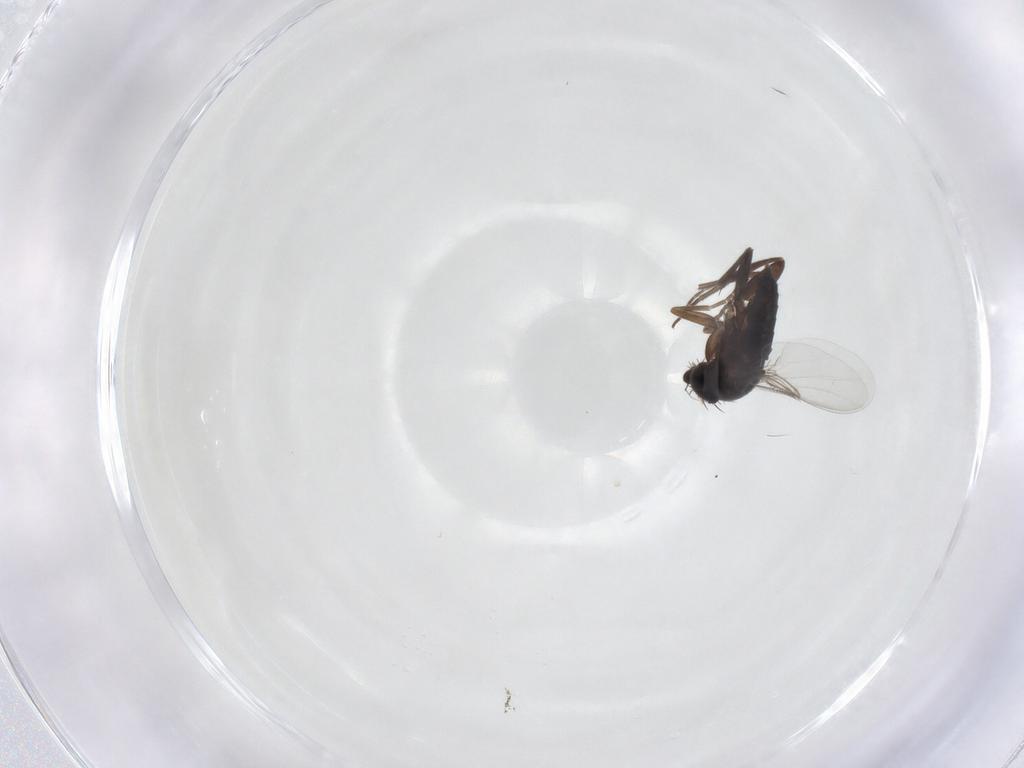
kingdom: Animalia
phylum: Arthropoda
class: Insecta
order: Diptera
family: Phoridae
